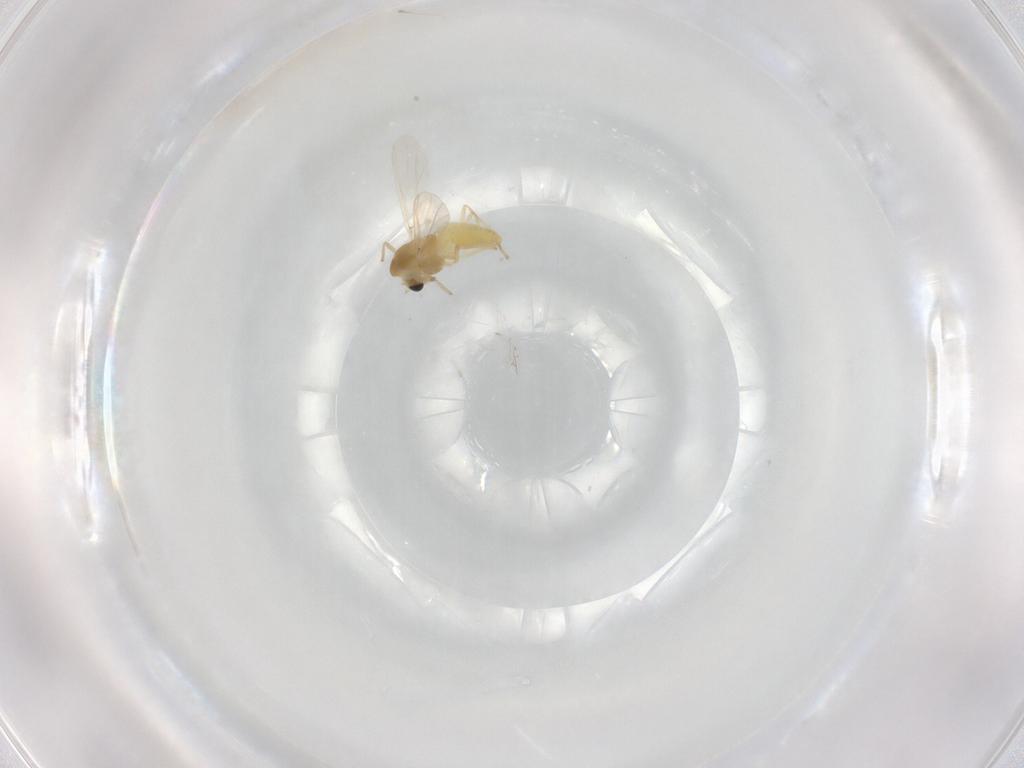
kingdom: Animalia
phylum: Arthropoda
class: Insecta
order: Diptera
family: Chironomidae
